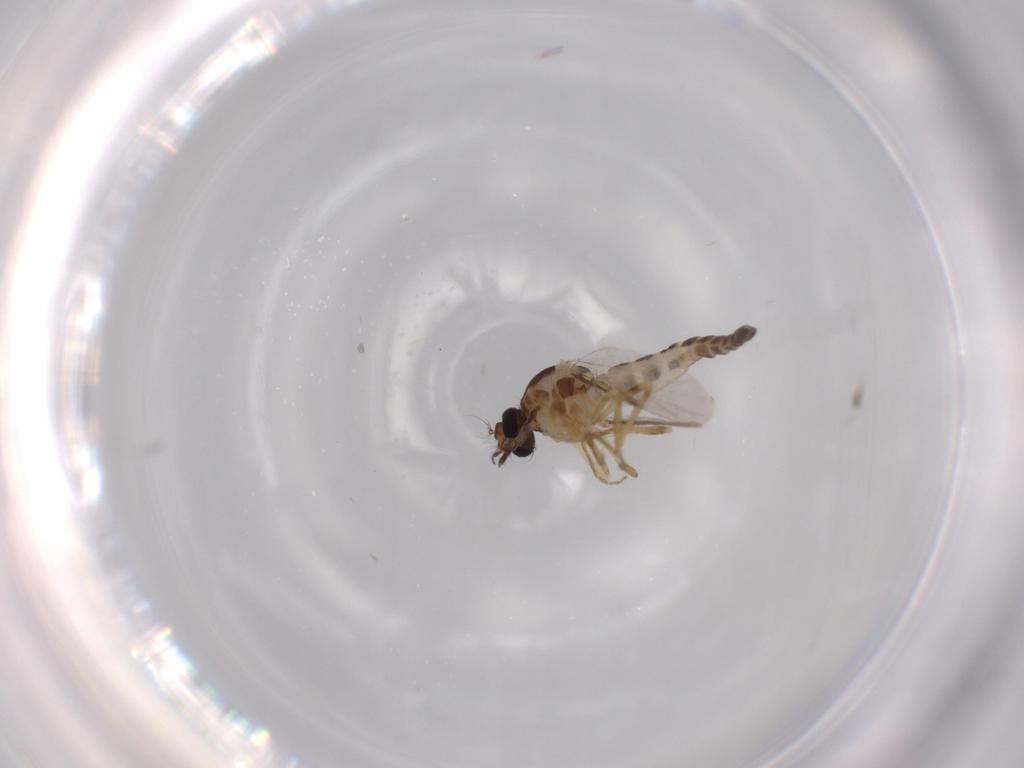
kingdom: Animalia
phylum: Arthropoda
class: Insecta
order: Diptera
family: Ceratopogonidae
